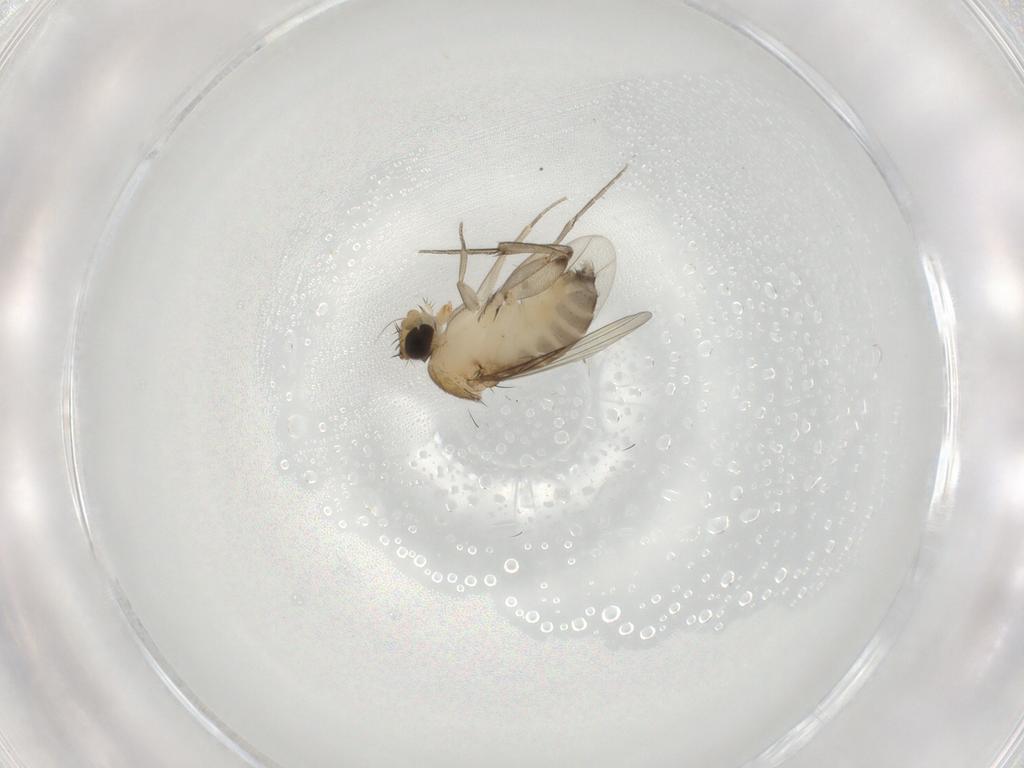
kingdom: Animalia
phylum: Arthropoda
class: Insecta
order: Diptera
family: Phoridae
